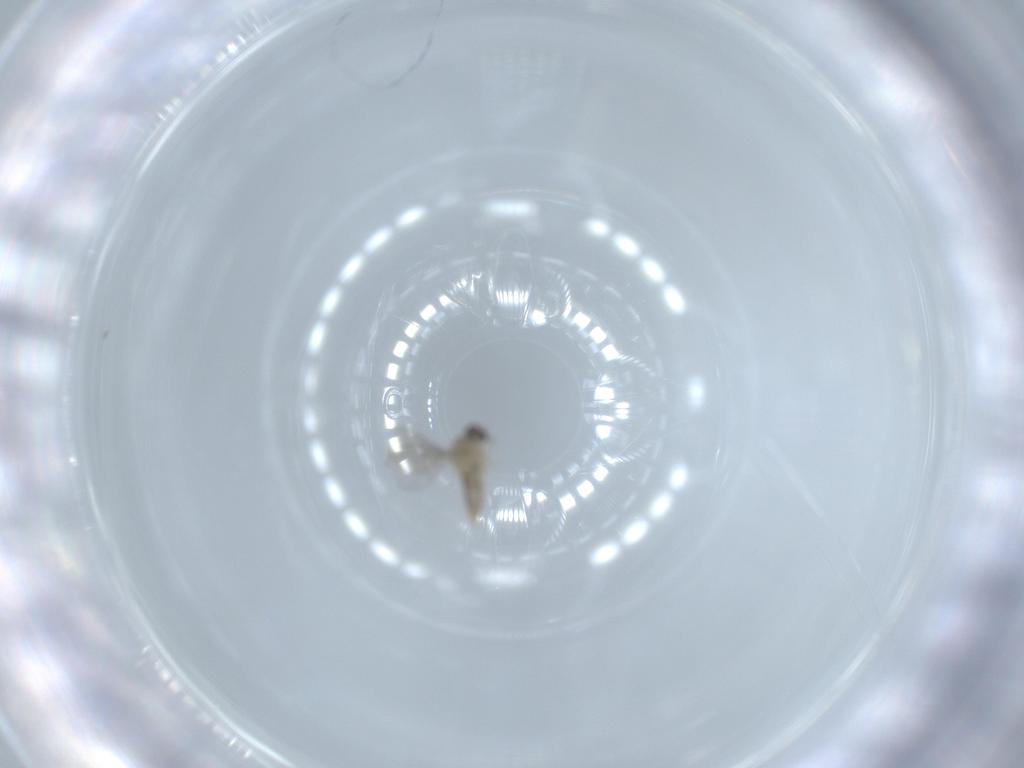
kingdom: Animalia
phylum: Arthropoda
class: Insecta
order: Diptera
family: Cecidomyiidae
